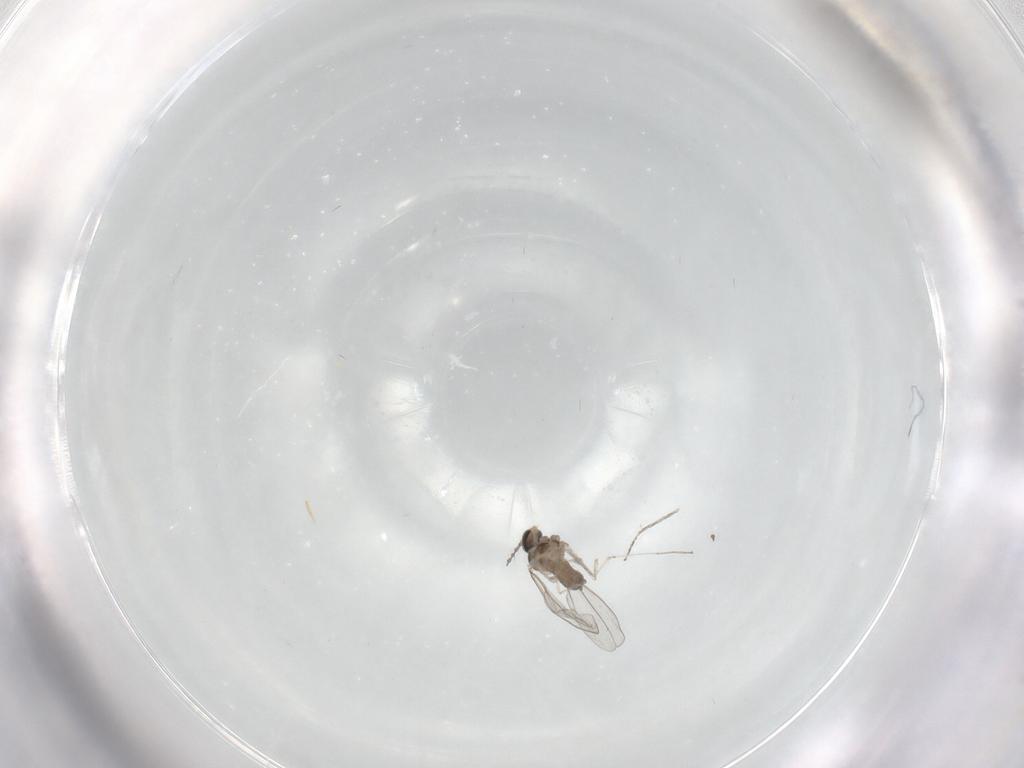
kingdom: Animalia
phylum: Arthropoda
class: Insecta
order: Diptera
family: Cecidomyiidae
